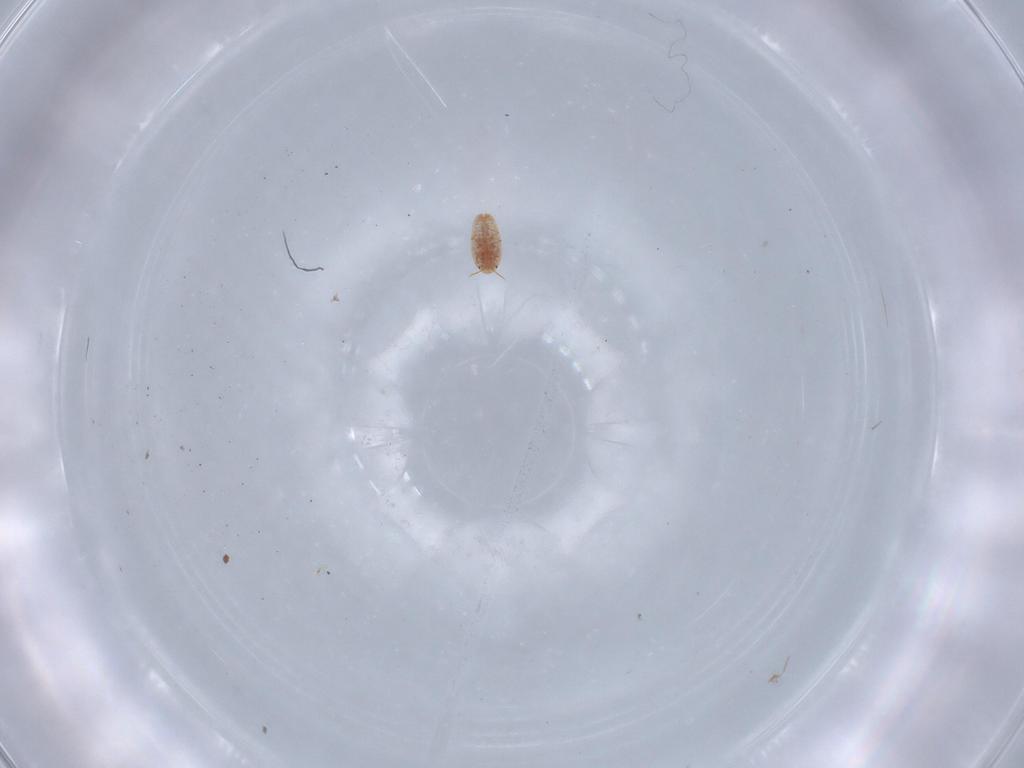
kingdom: Animalia
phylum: Arthropoda
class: Insecta
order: Hemiptera
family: Coccidae
